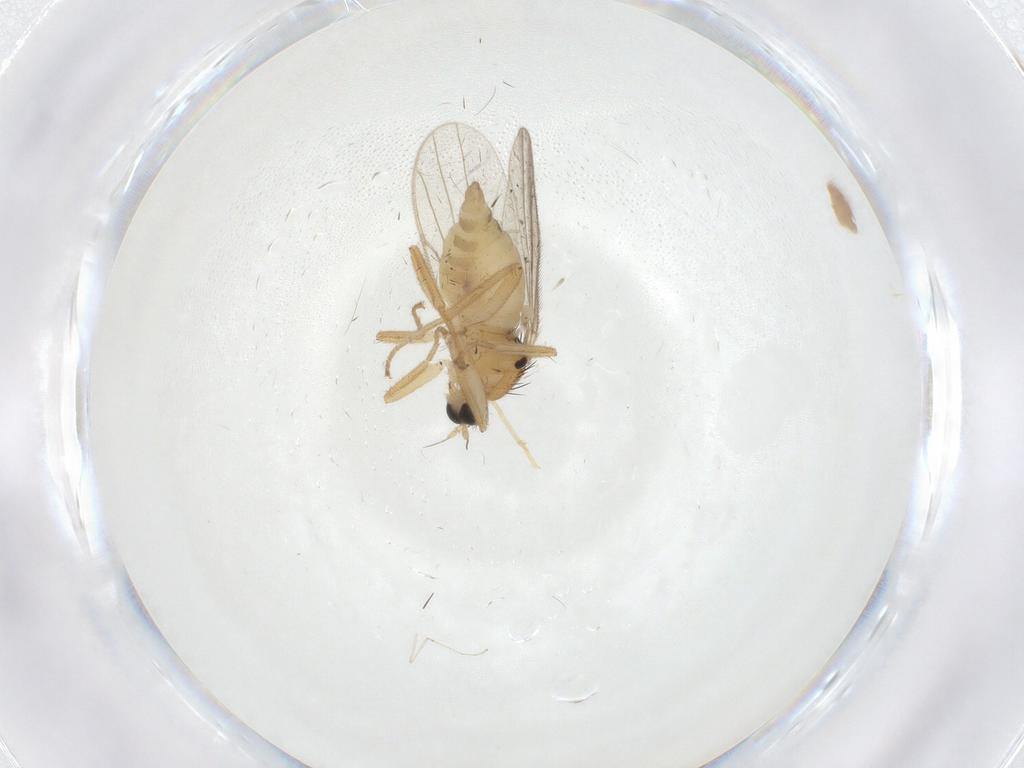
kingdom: Animalia
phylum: Arthropoda
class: Insecta
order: Diptera
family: Hybotidae
